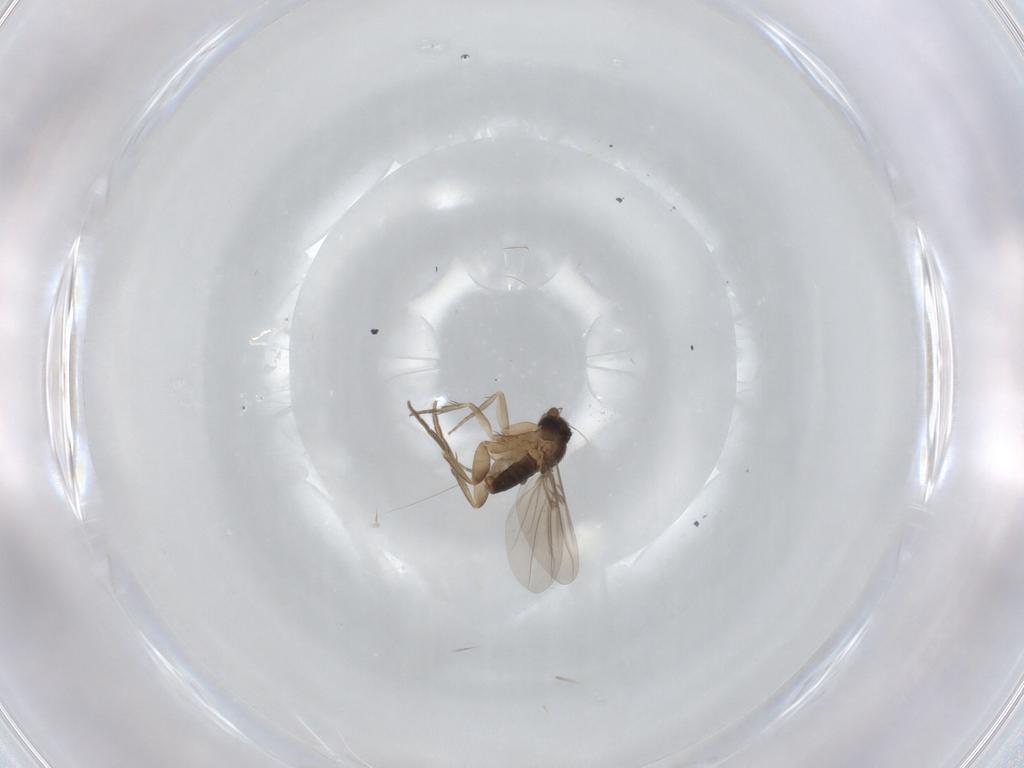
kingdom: Animalia
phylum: Arthropoda
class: Insecta
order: Diptera
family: Phoridae
